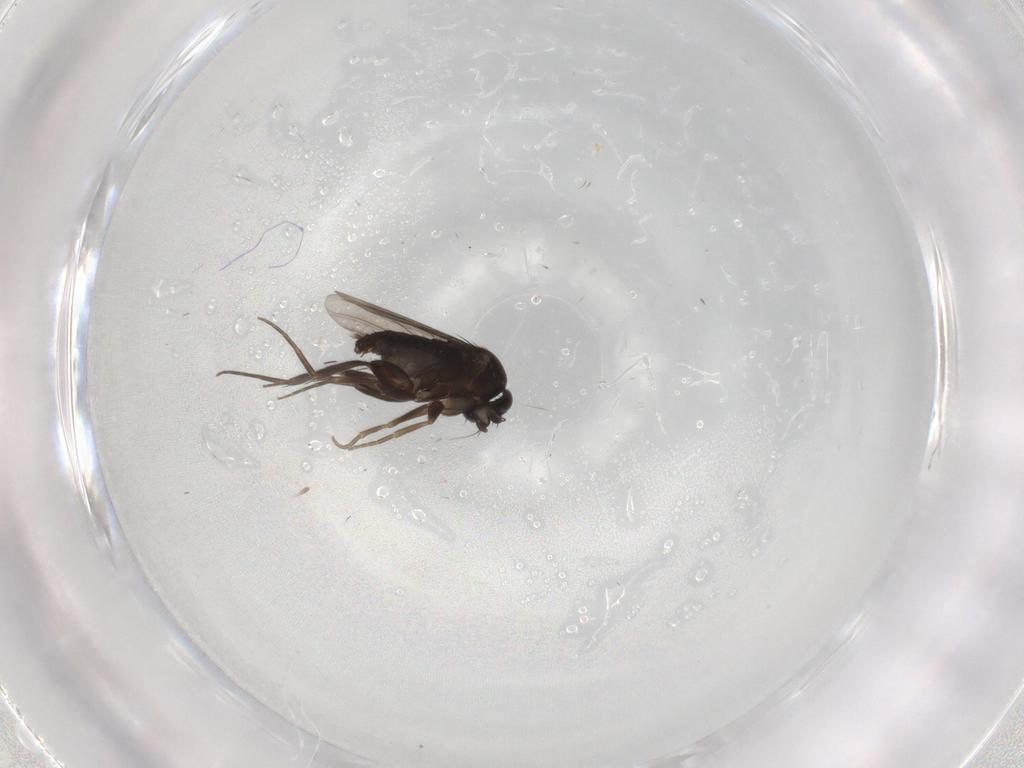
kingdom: Animalia
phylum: Arthropoda
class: Insecta
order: Diptera
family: Phoridae
